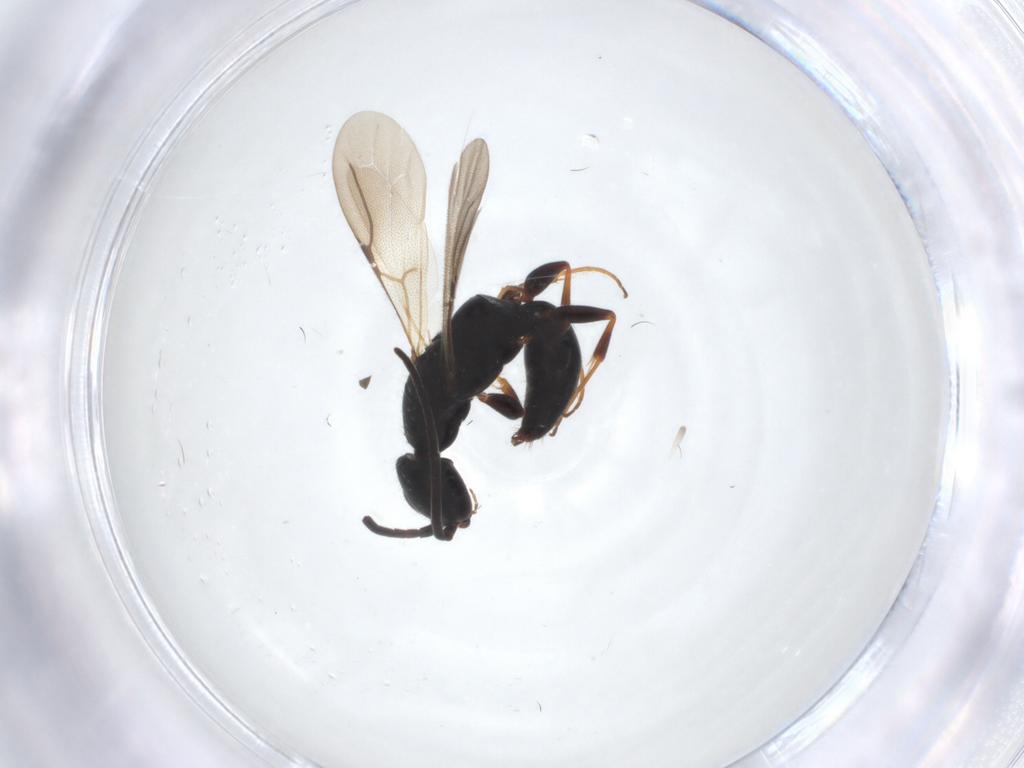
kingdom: Animalia
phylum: Arthropoda
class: Insecta
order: Hymenoptera
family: Bethylidae
